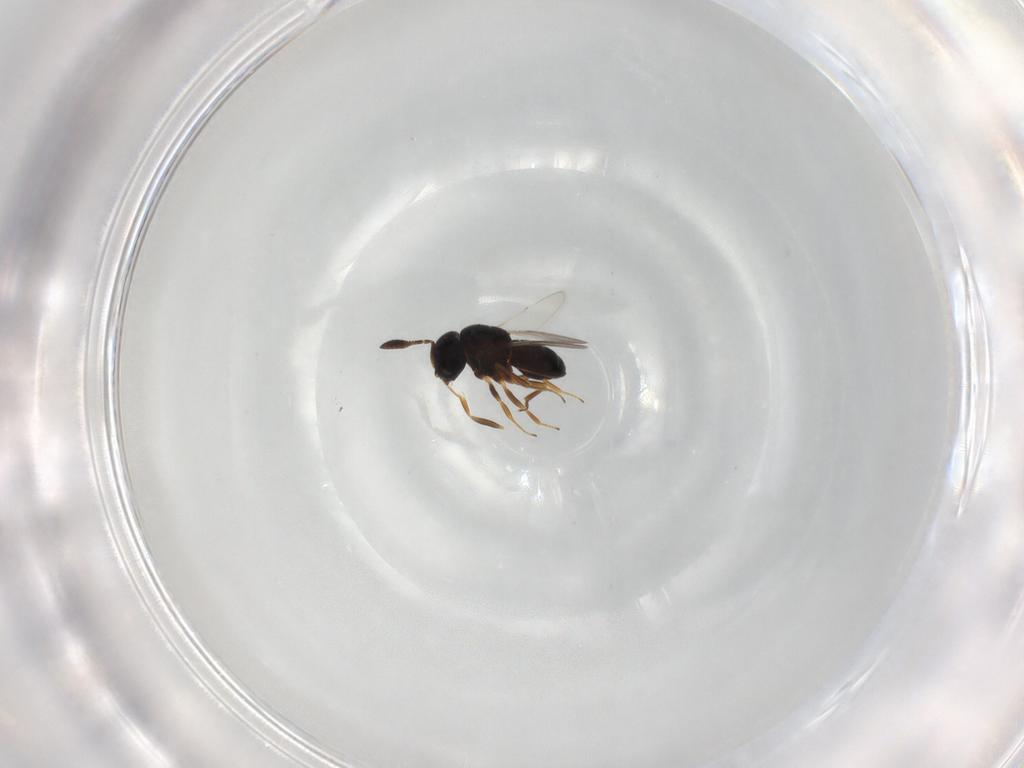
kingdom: Animalia
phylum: Arthropoda
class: Insecta
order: Hymenoptera
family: Scelionidae
